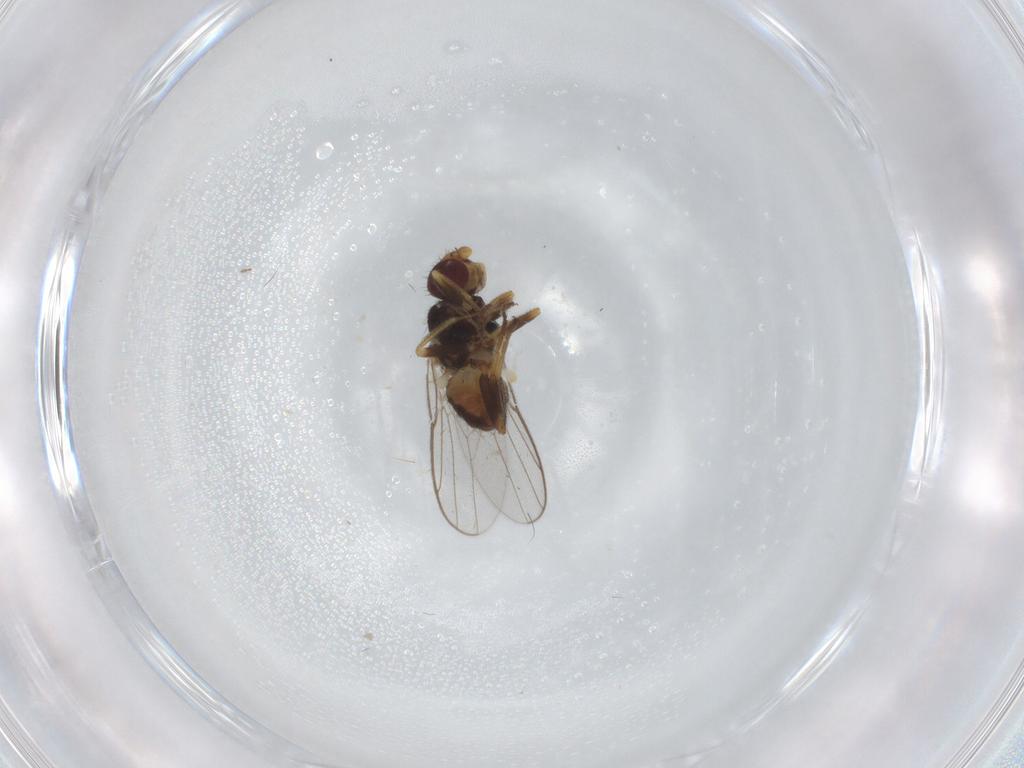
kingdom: Animalia
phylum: Arthropoda
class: Insecta
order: Diptera
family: Chloropidae
